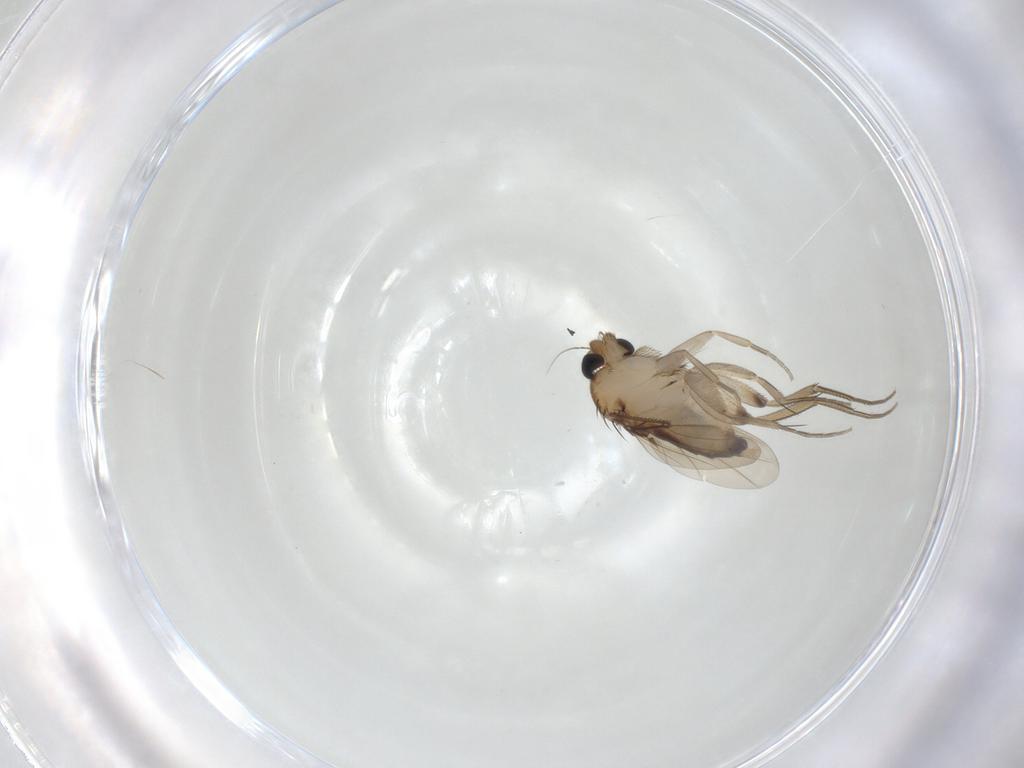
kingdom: Animalia
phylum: Arthropoda
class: Insecta
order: Diptera
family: Phoridae
